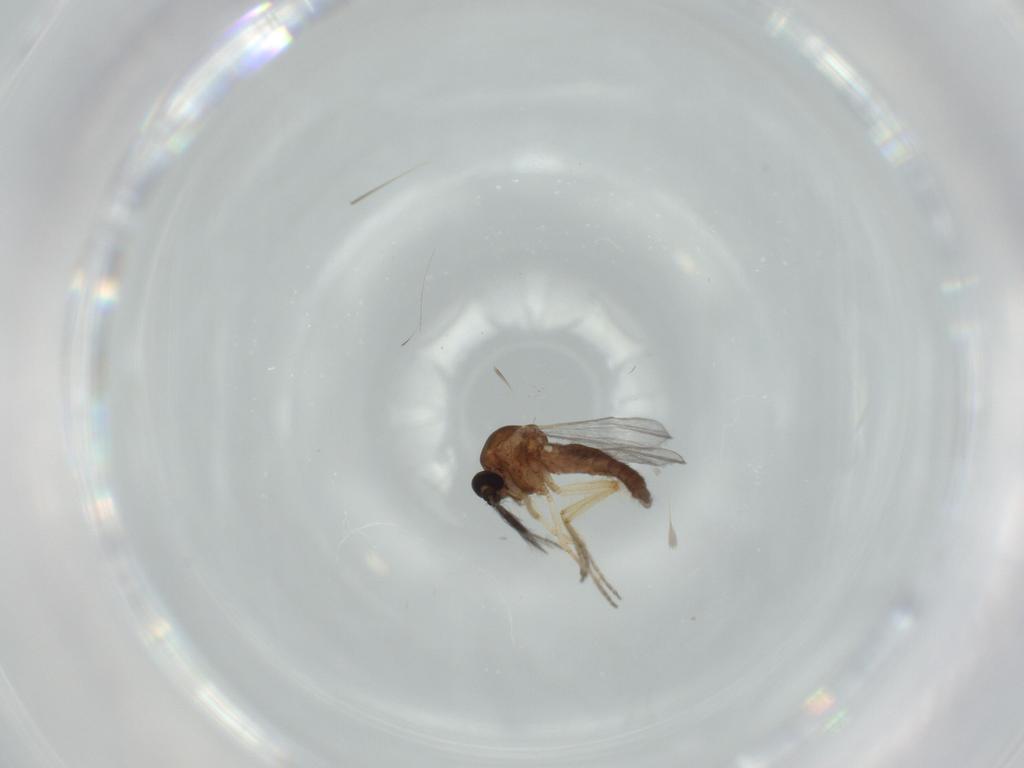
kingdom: Animalia
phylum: Arthropoda
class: Insecta
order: Diptera
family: Ceratopogonidae
